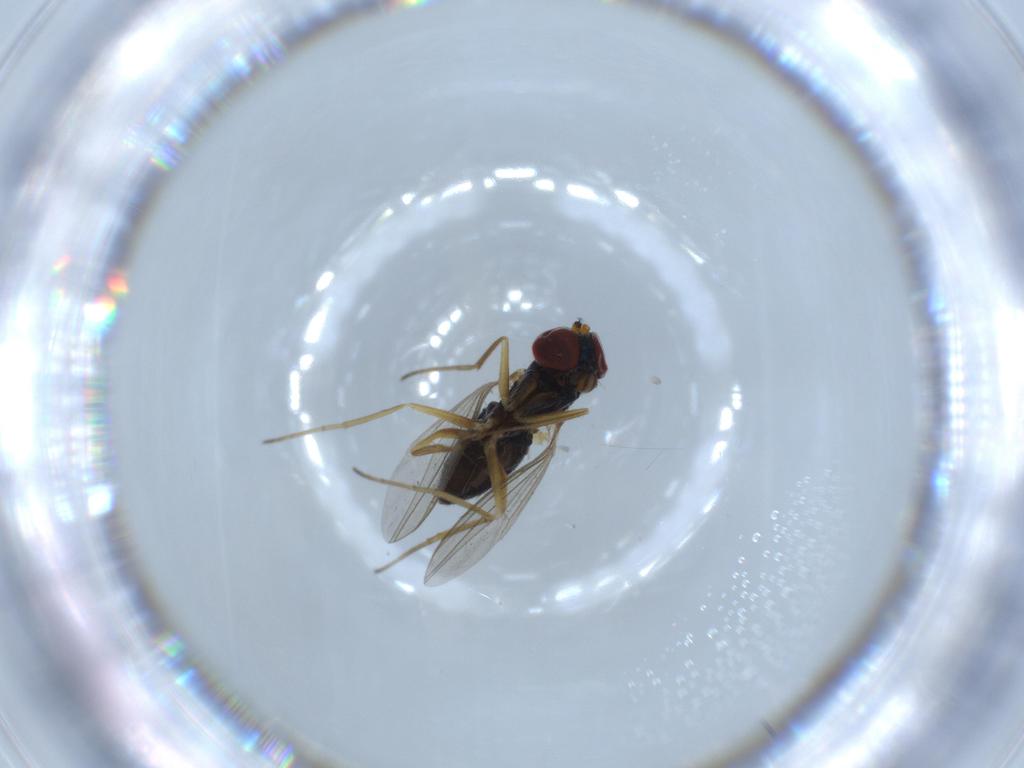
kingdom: Animalia
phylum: Arthropoda
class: Insecta
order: Diptera
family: Dolichopodidae
